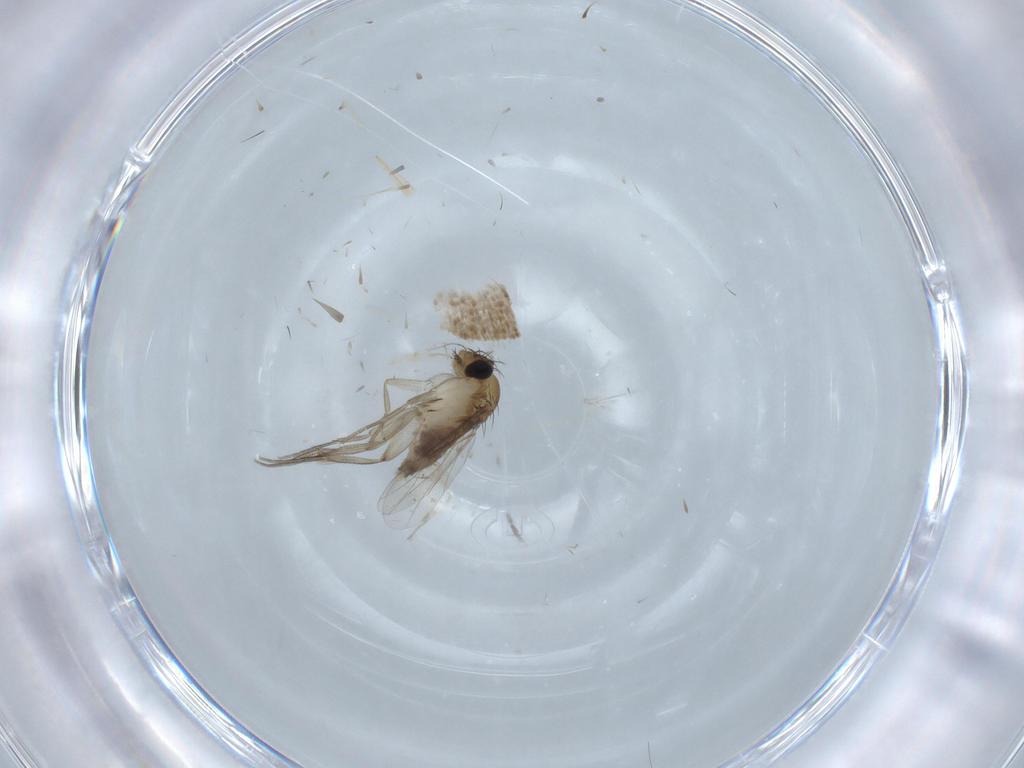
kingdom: Animalia
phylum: Arthropoda
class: Insecta
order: Diptera
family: Phoridae
